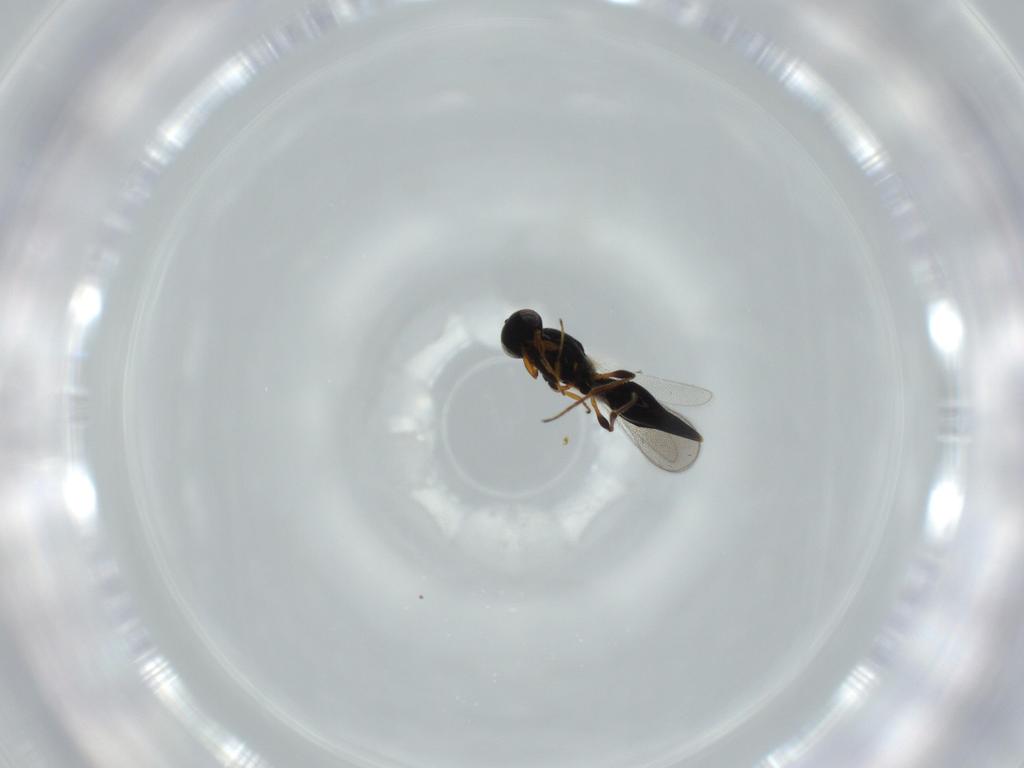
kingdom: Animalia
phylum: Arthropoda
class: Insecta
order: Hymenoptera
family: Platygastridae
